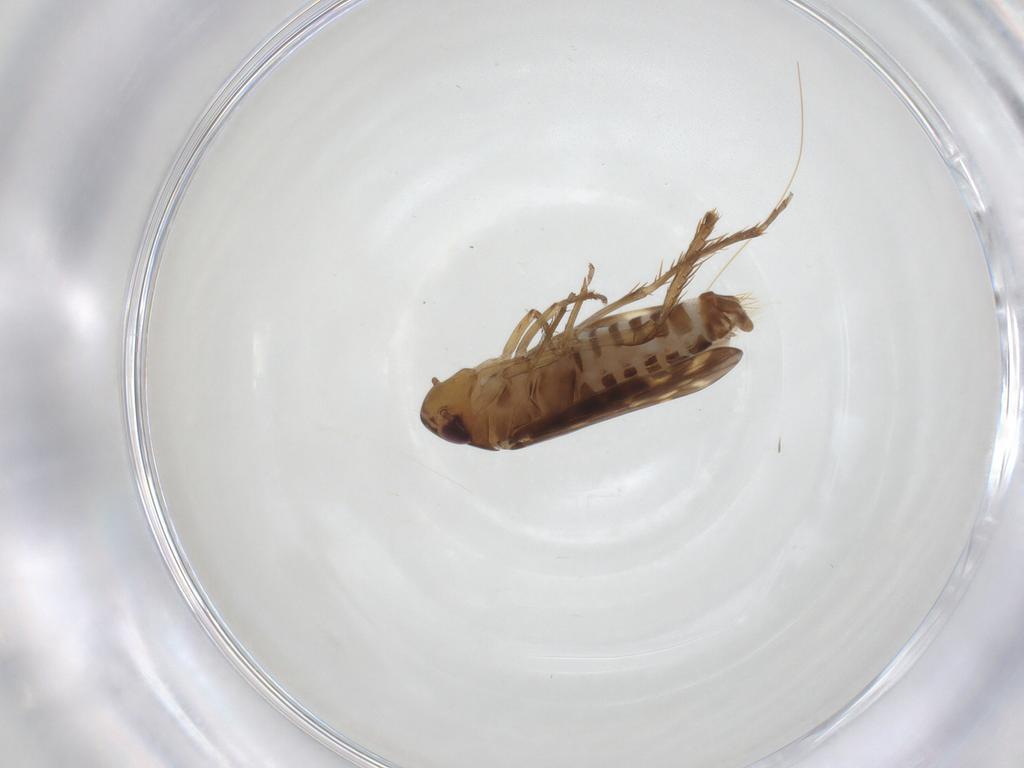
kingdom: Animalia
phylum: Arthropoda
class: Insecta
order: Hemiptera
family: Cicadellidae
